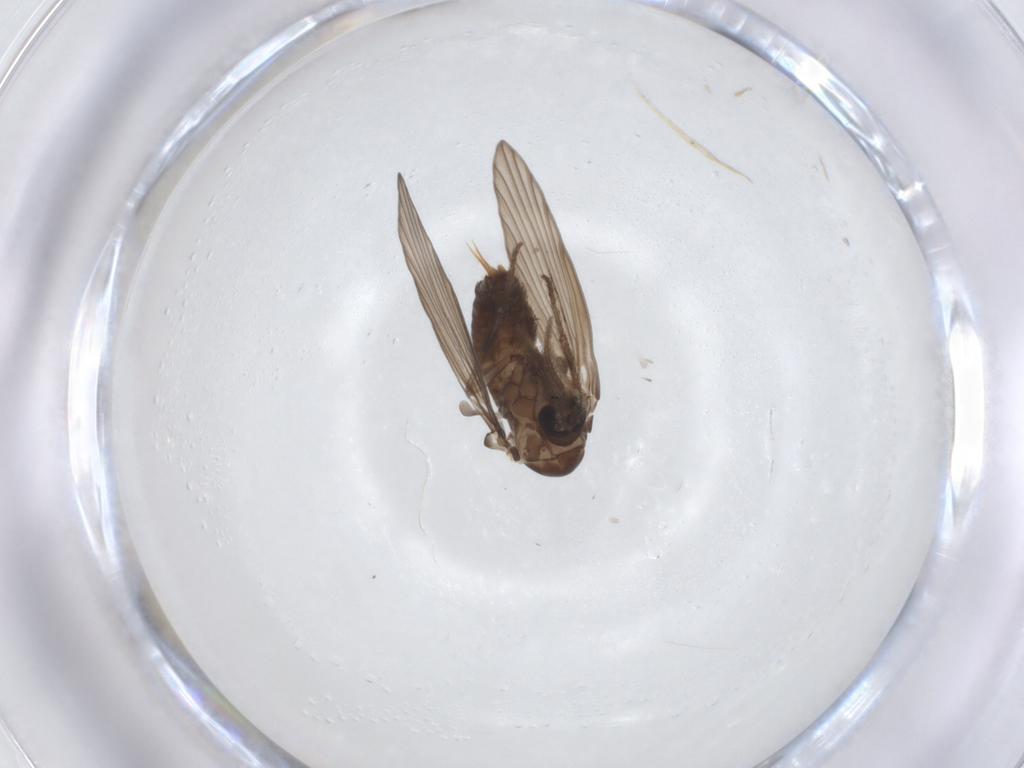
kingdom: Animalia
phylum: Arthropoda
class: Insecta
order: Diptera
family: Cecidomyiidae
